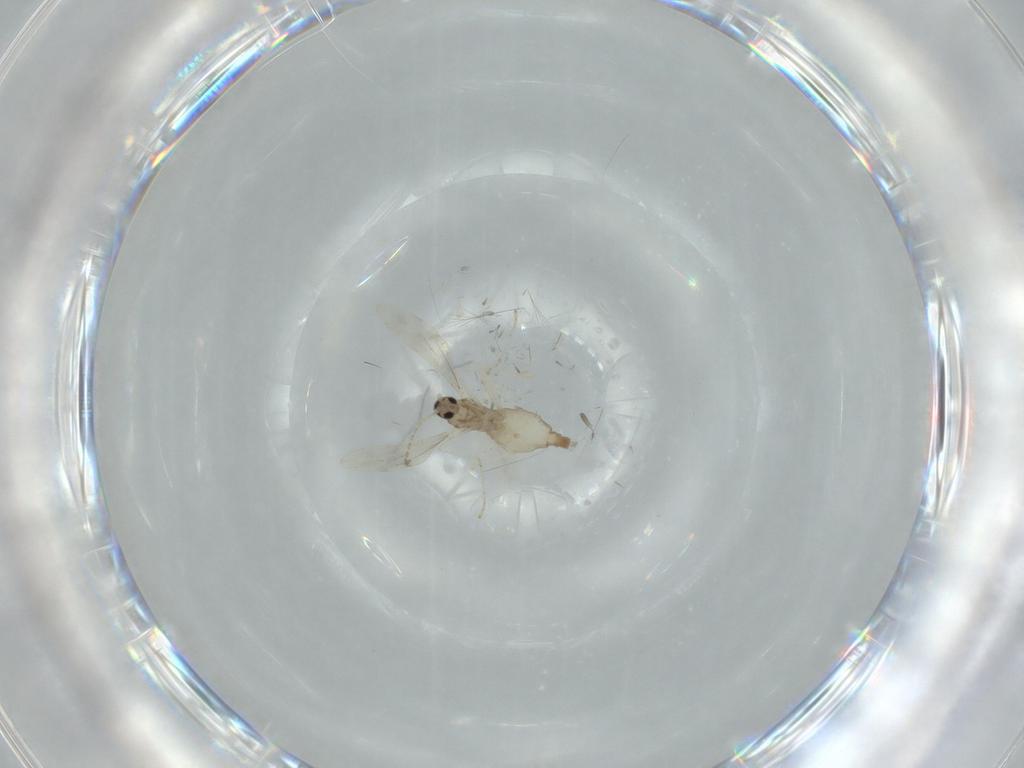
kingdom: Animalia
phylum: Arthropoda
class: Insecta
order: Diptera
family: Cecidomyiidae
